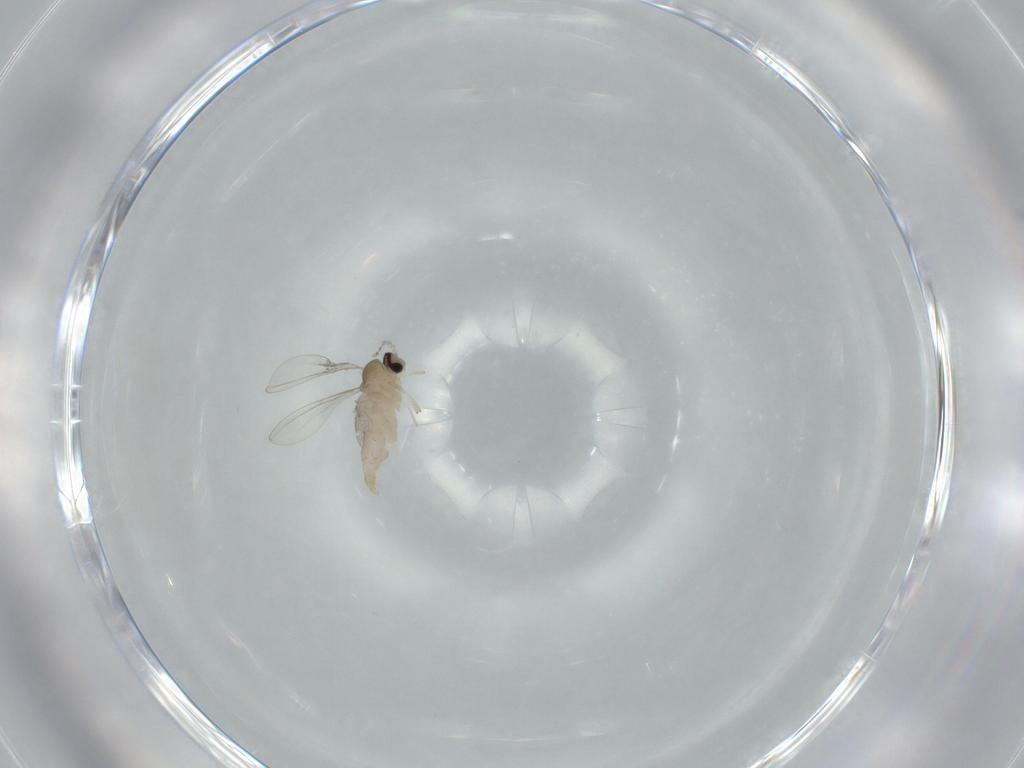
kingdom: Animalia
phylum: Arthropoda
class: Insecta
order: Diptera
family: Cecidomyiidae
